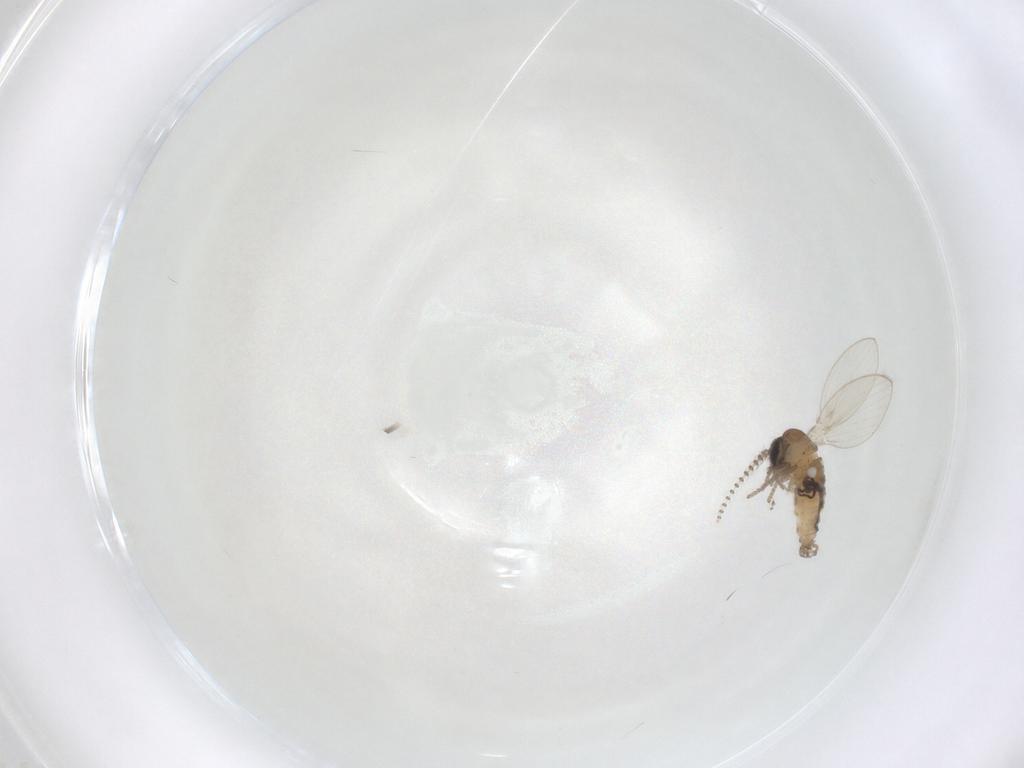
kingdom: Animalia
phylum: Arthropoda
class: Insecta
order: Diptera
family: Psychodidae
